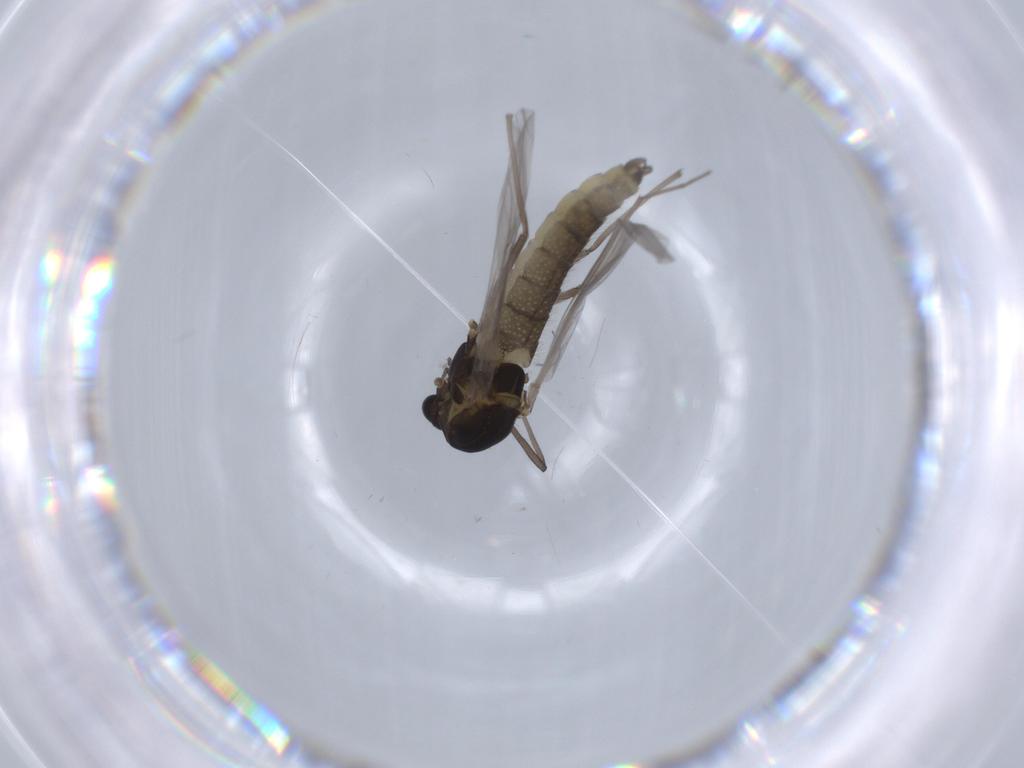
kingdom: Animalia
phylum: Arthropoda
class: Insecta
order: Diptera
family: Chironomidae
